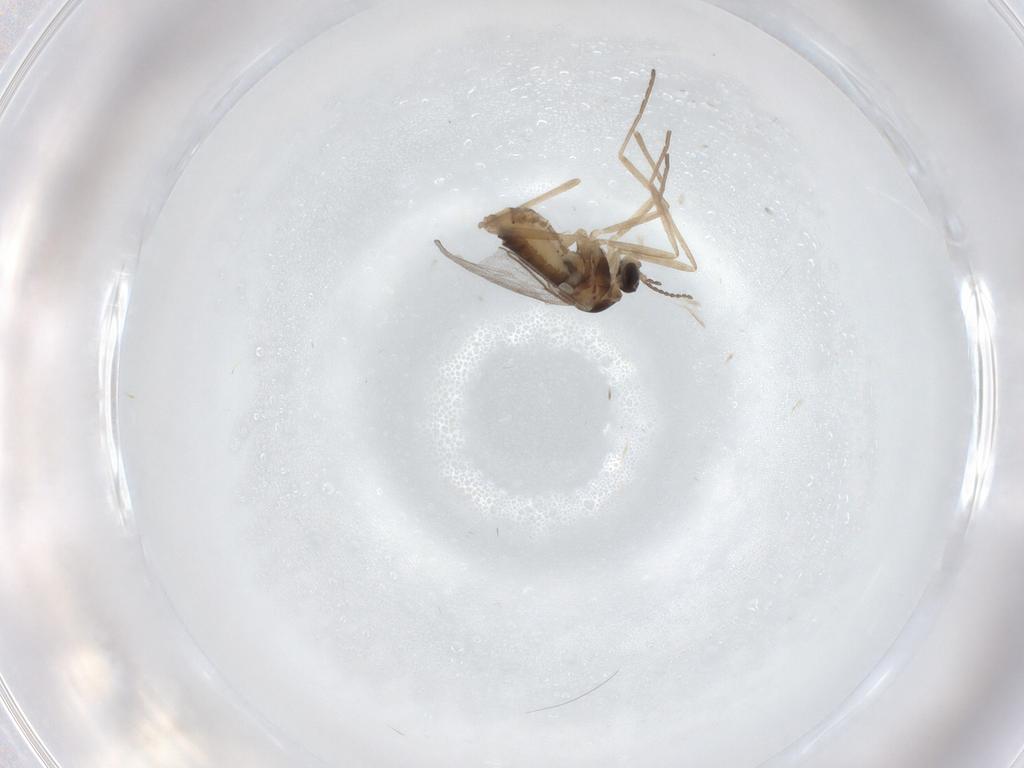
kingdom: Animalia
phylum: Arthropoda
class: Insecta
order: Diptera
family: Cecidomyiidae
